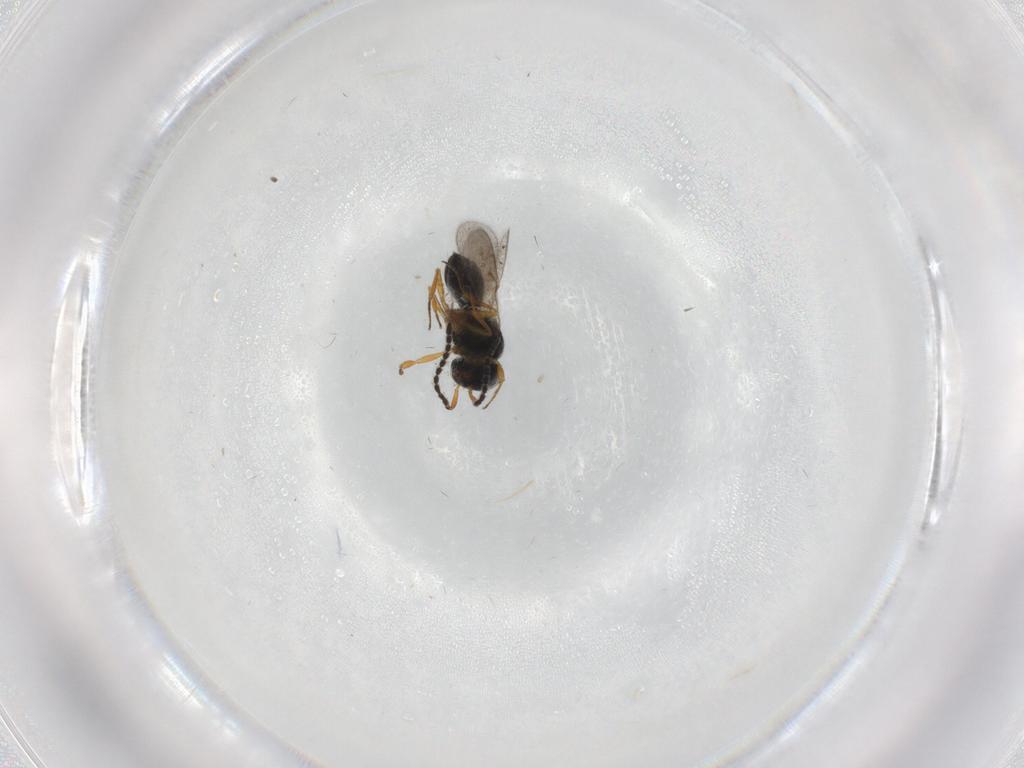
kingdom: Animalia
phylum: Arthropoda
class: Insecta
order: Hymenoptera
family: Scelionidae
